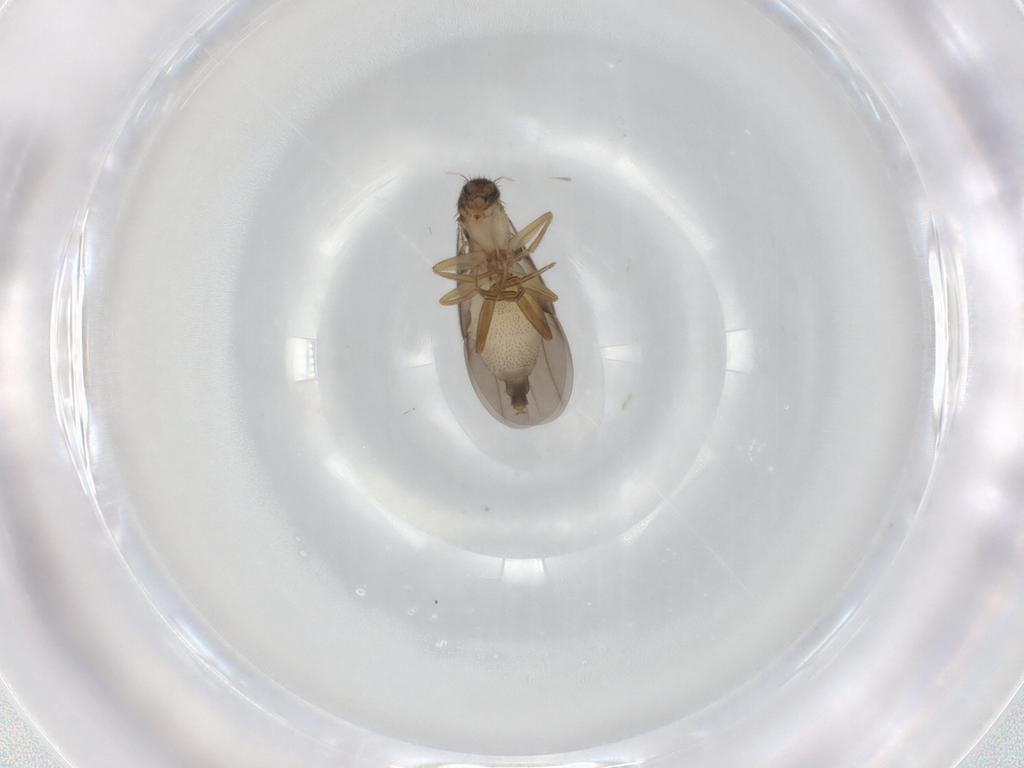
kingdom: Animalia
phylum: Arthropoda
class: Insecta
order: Diptera
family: Phoridae
